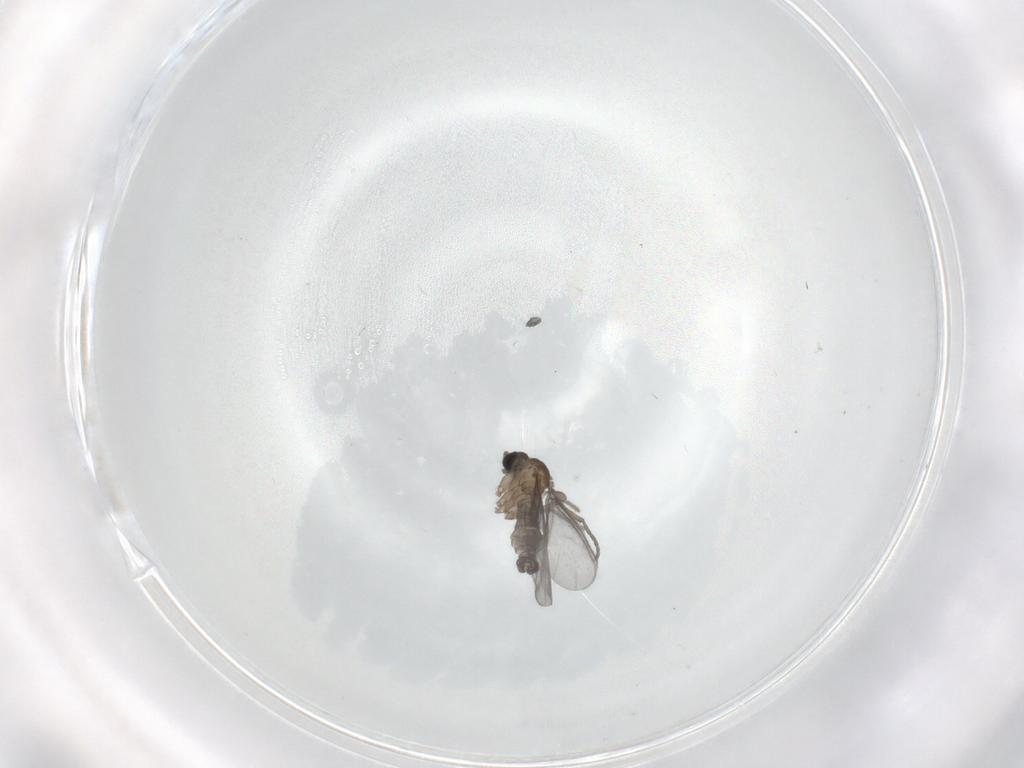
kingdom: Animalia
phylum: Arthropoda
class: Insecta
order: Diptera
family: Sciaridae
